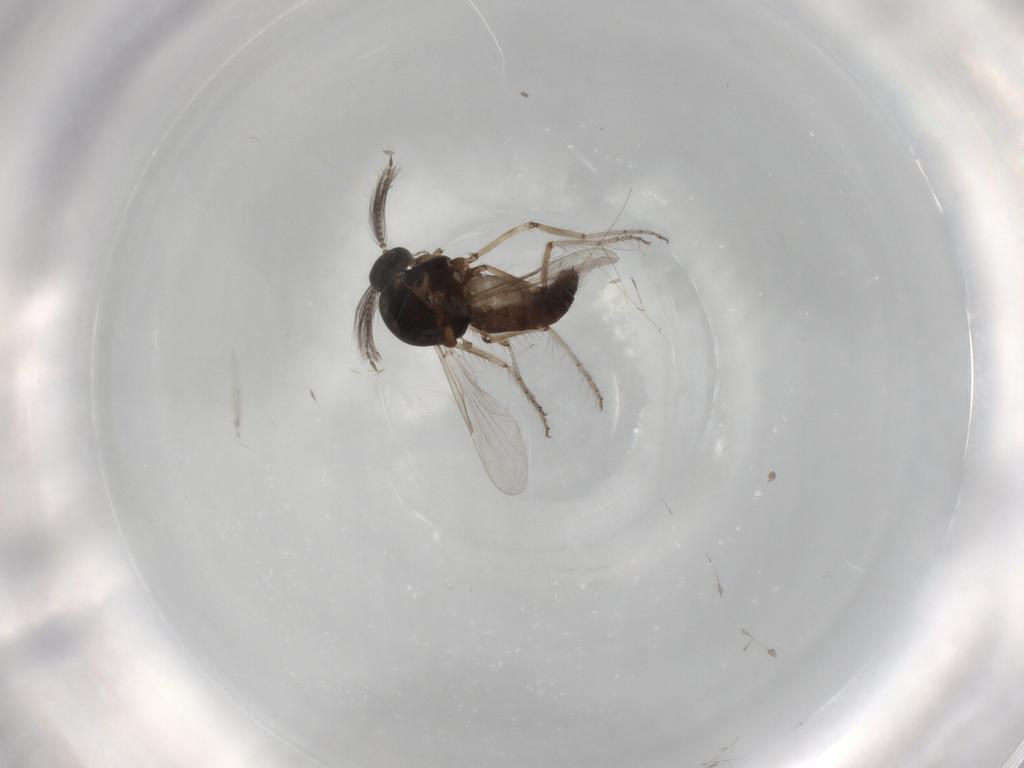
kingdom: Animalia
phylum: Arthropoda
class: Insecta
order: Diptera
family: Ceratopogonidae
